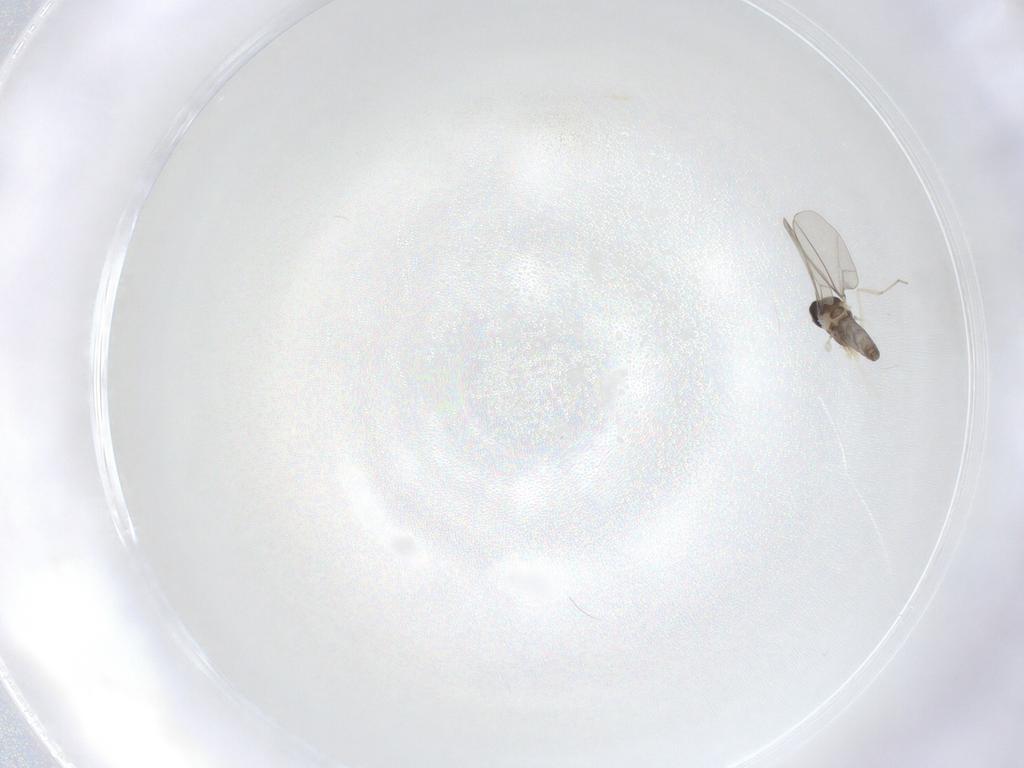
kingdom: Animalia
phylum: Arthropoda
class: Insecta
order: Diptera
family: Cecidomyiidae
